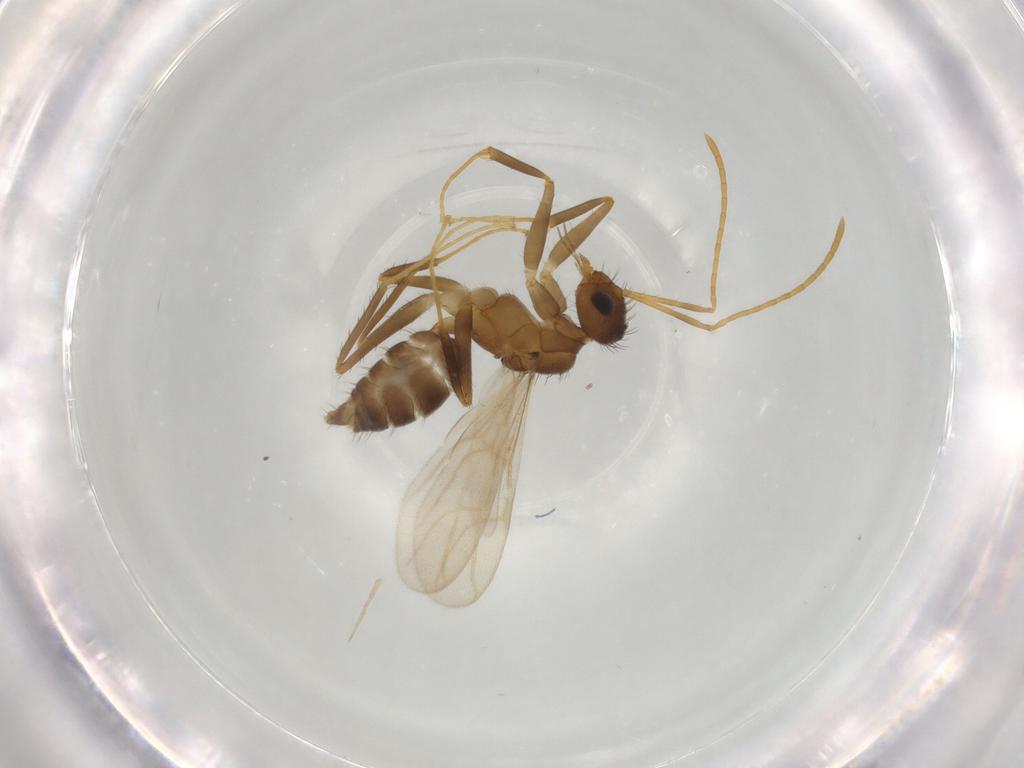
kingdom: Animalia
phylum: Arthropoda
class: Insecta
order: Hymenoptera
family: Formicidae
